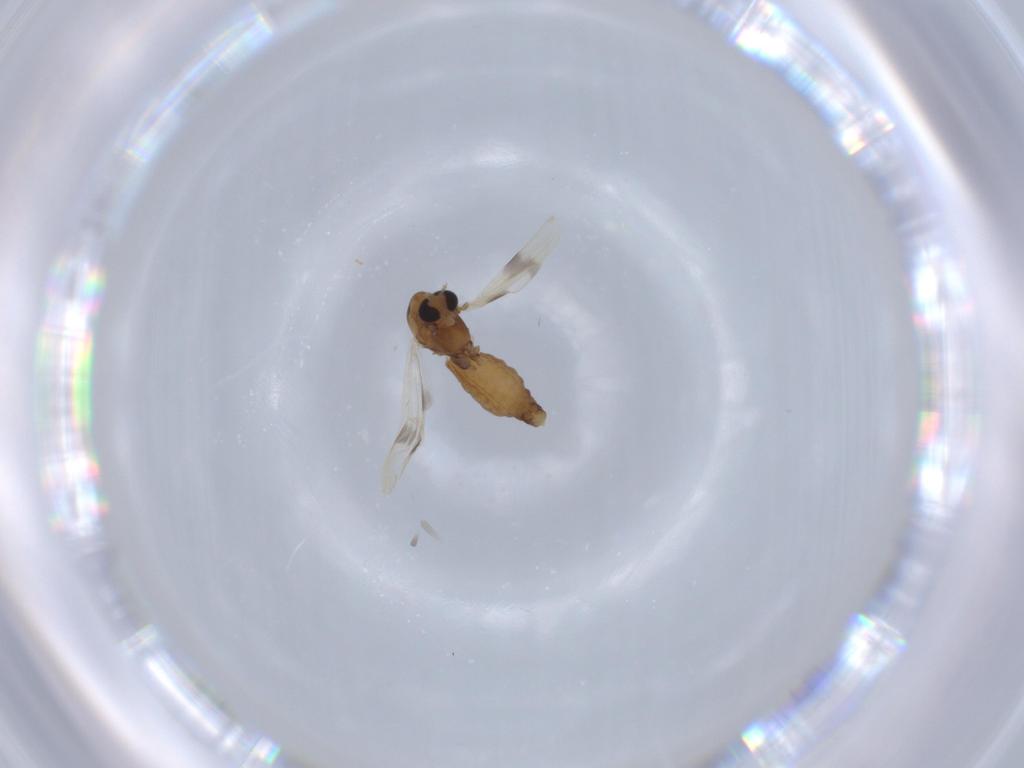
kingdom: Animalia
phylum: Arthropoda
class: Insecta
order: Diptera
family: Chironomidae
